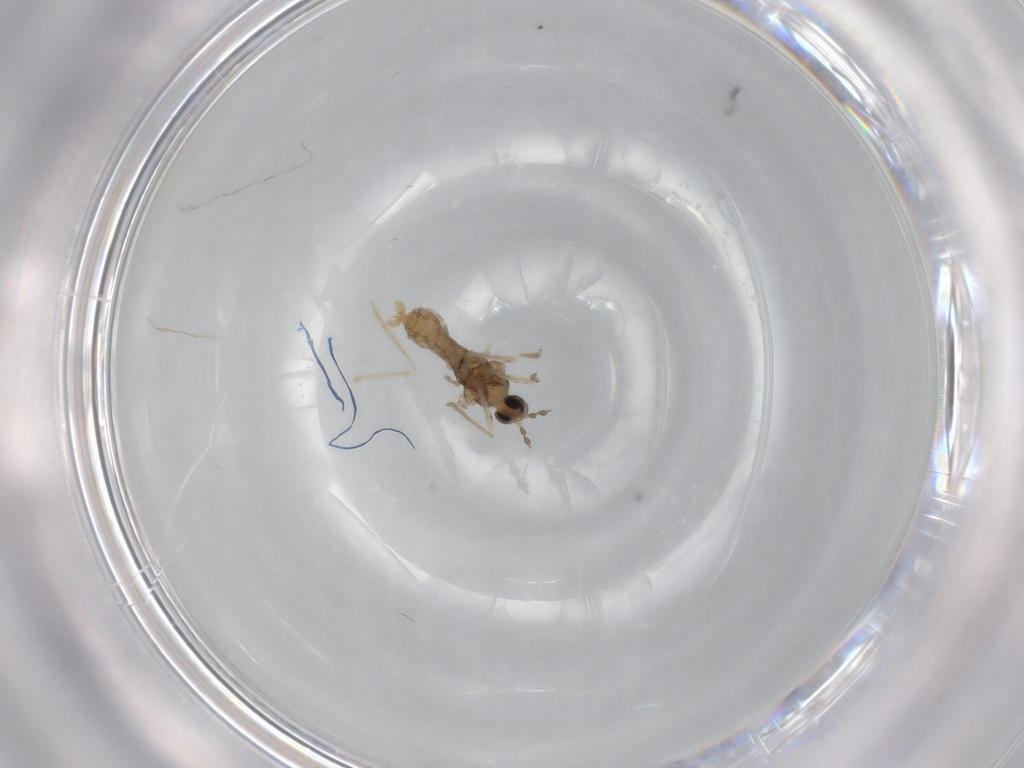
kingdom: Animalia
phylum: Arthropoda
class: Insecta
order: Diptera
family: Cecidomyiidae
